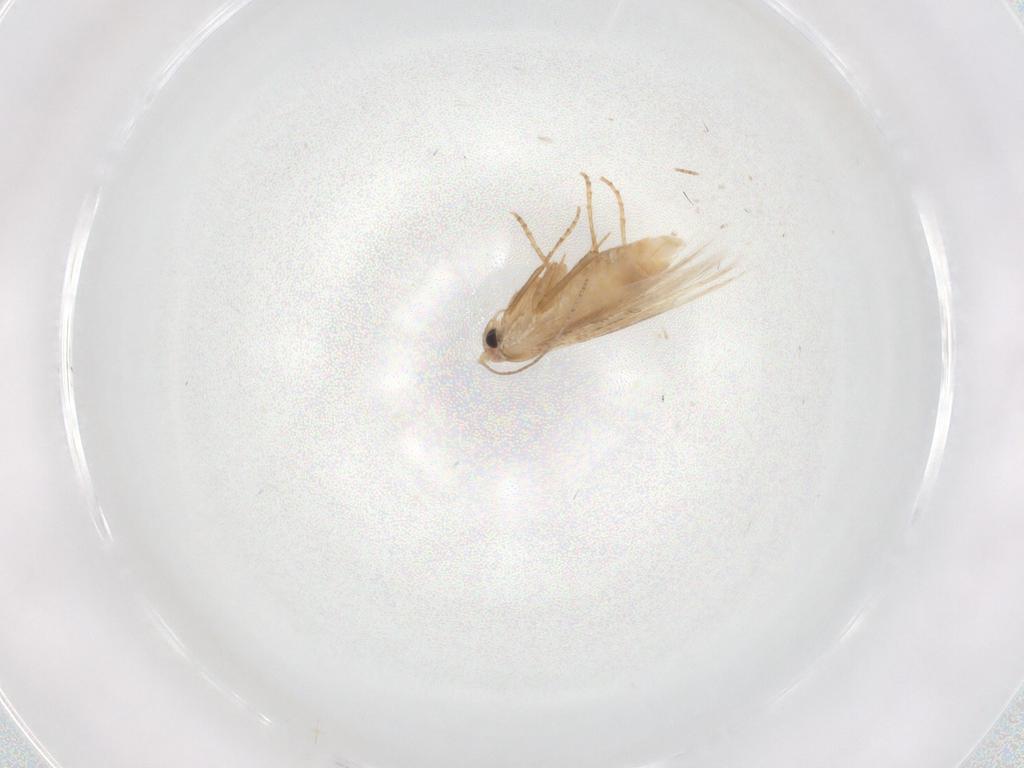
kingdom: Animalia
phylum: Arthropoda
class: Insecta
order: Lepidoptera
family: Bucculatricidae
